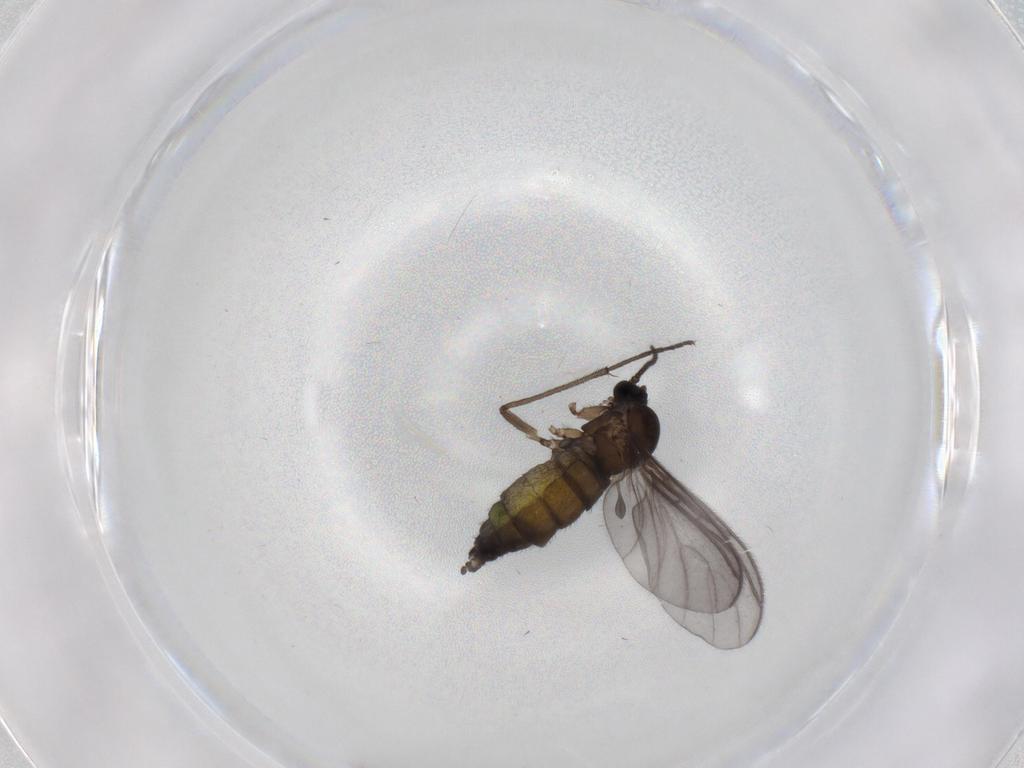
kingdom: Animalia
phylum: Arthropoda
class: Insecta
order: Diptera
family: Sciaridae
